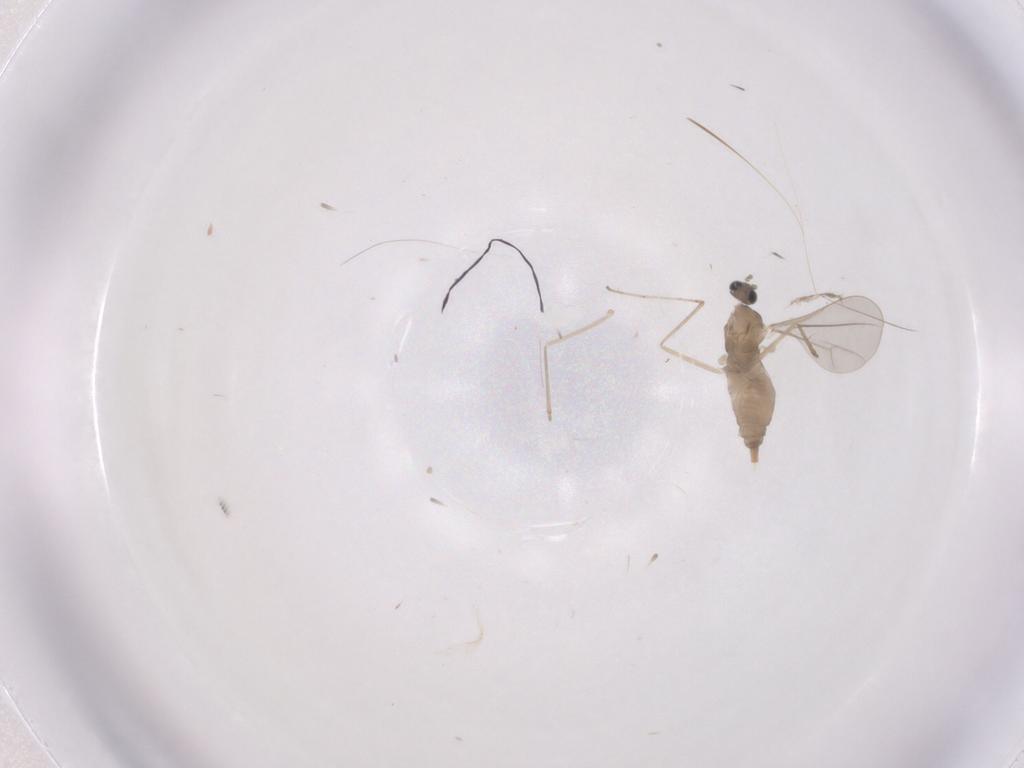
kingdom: Animalia
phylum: Arthropoda
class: Insecta
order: Diptera
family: Cecidomyiidae
